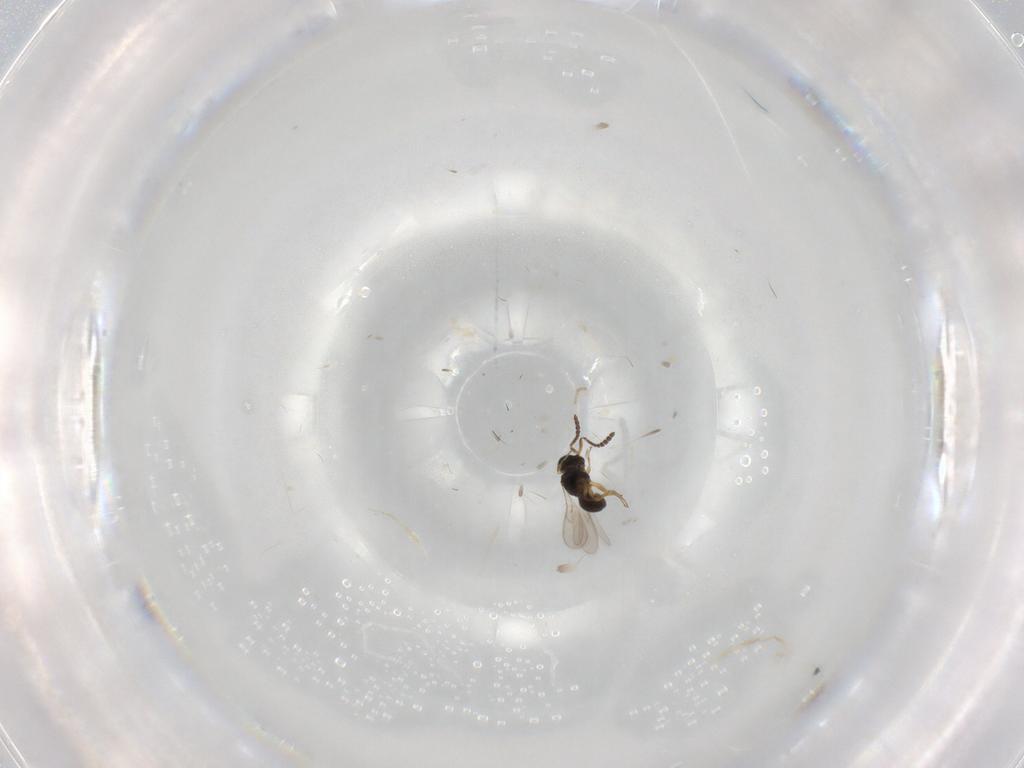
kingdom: Animalia
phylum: Arthropoda
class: Insecta
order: Hymenoptera
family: Scelionidae
